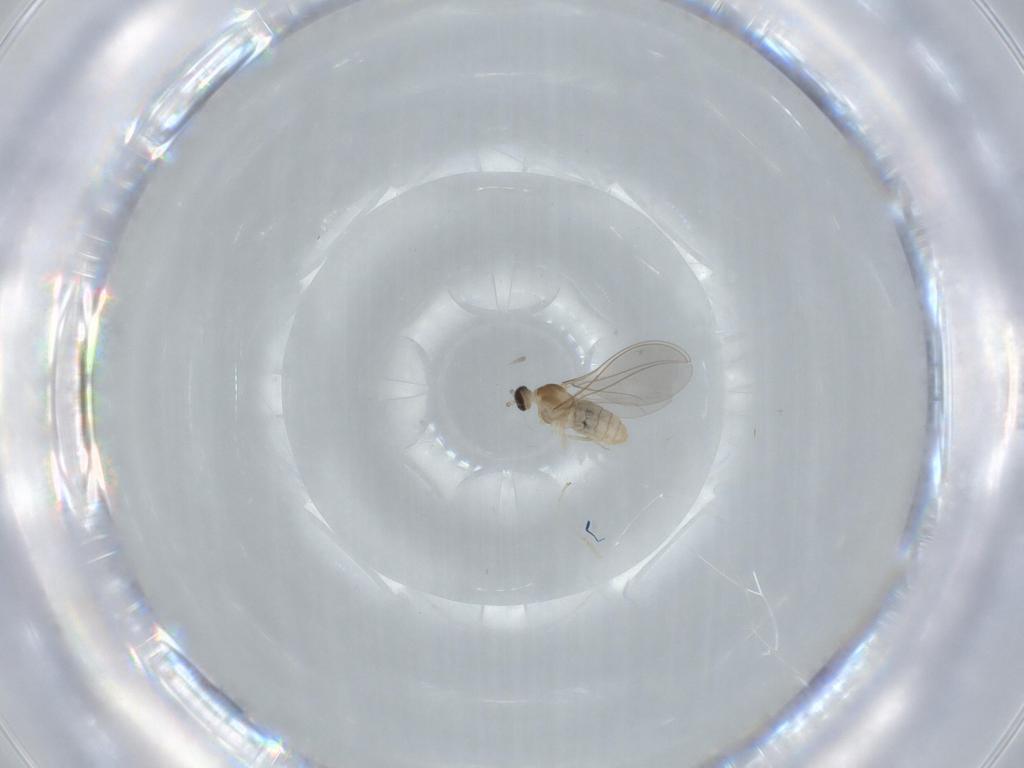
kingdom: Animalia
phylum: Arthropoda
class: Insecta
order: Diptera
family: Cecidomyiidae
